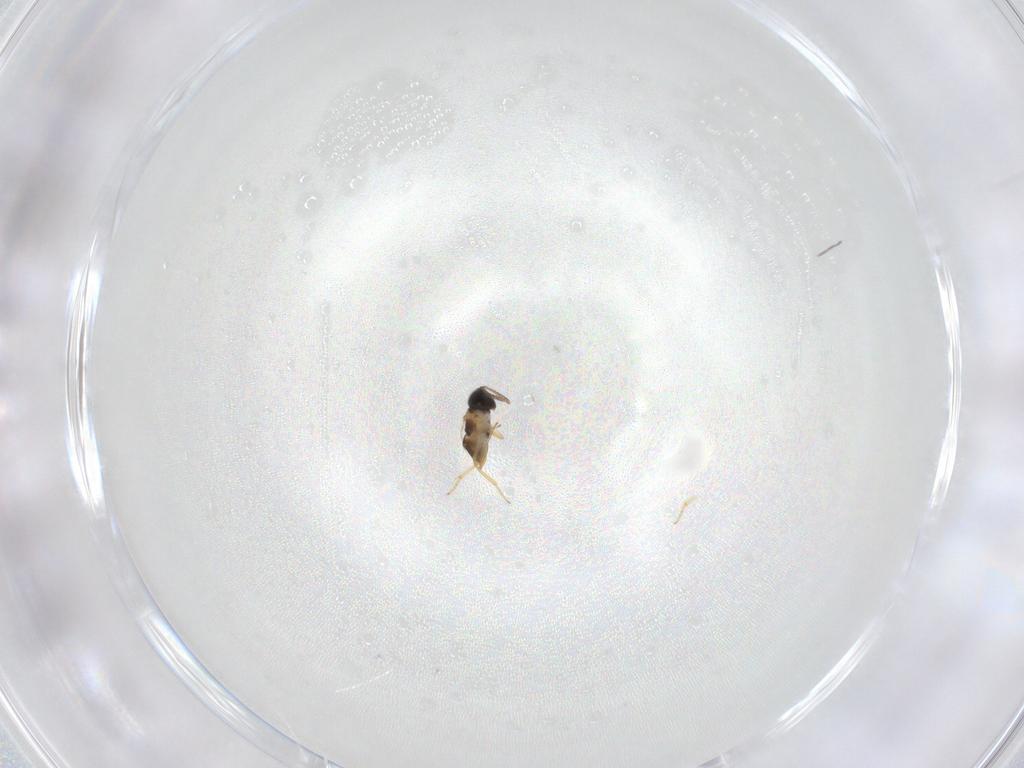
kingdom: Animalia
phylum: Arthropoda
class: Insecta
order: Hymenoptera
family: Eulophidae
